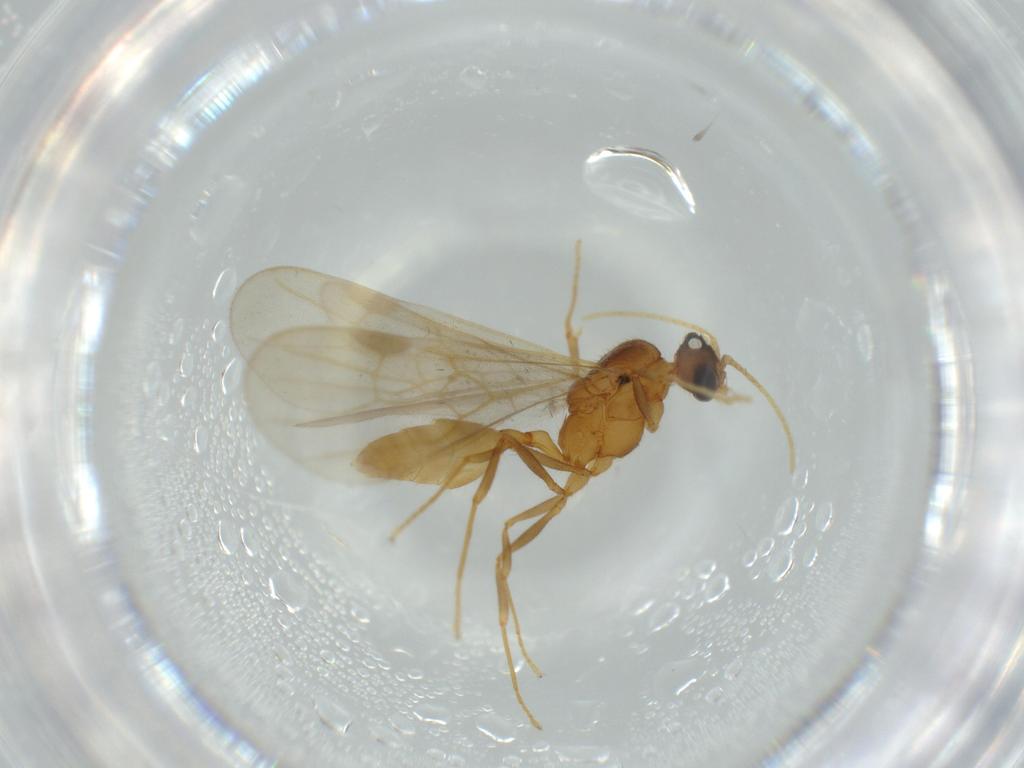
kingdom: Animalia
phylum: Arthropoda
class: Insecta
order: Hymenoptera
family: Formicidae
